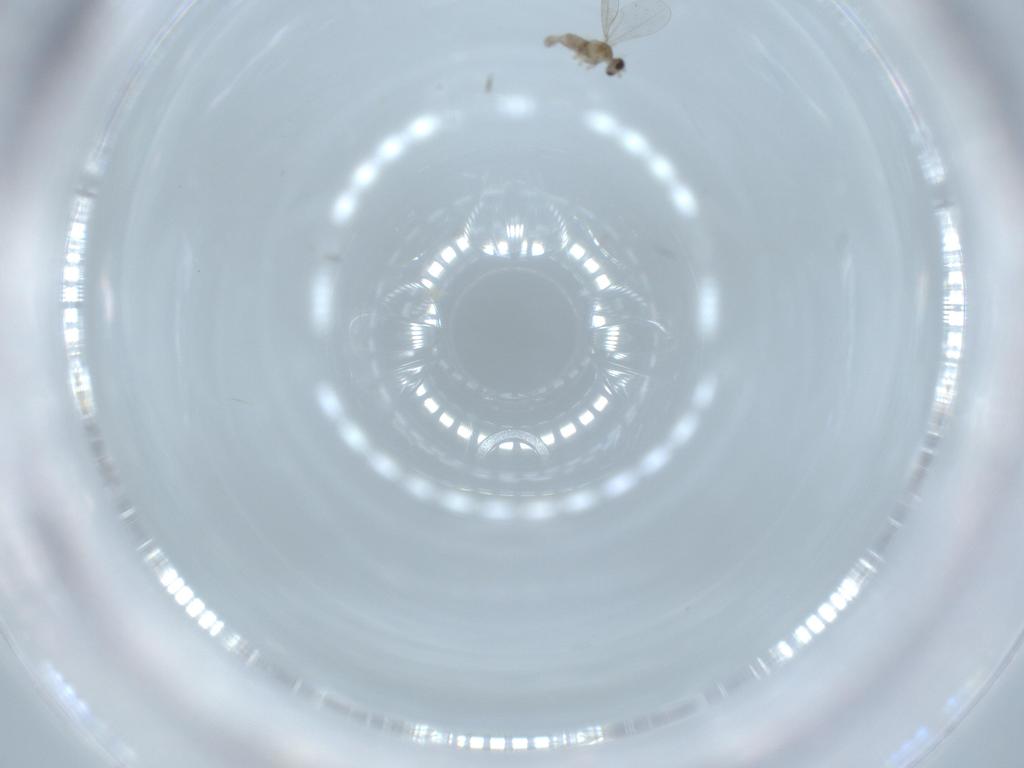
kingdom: Animalia
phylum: Arthropoda
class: Insecta
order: Diptera
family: Cecidomyiidae
